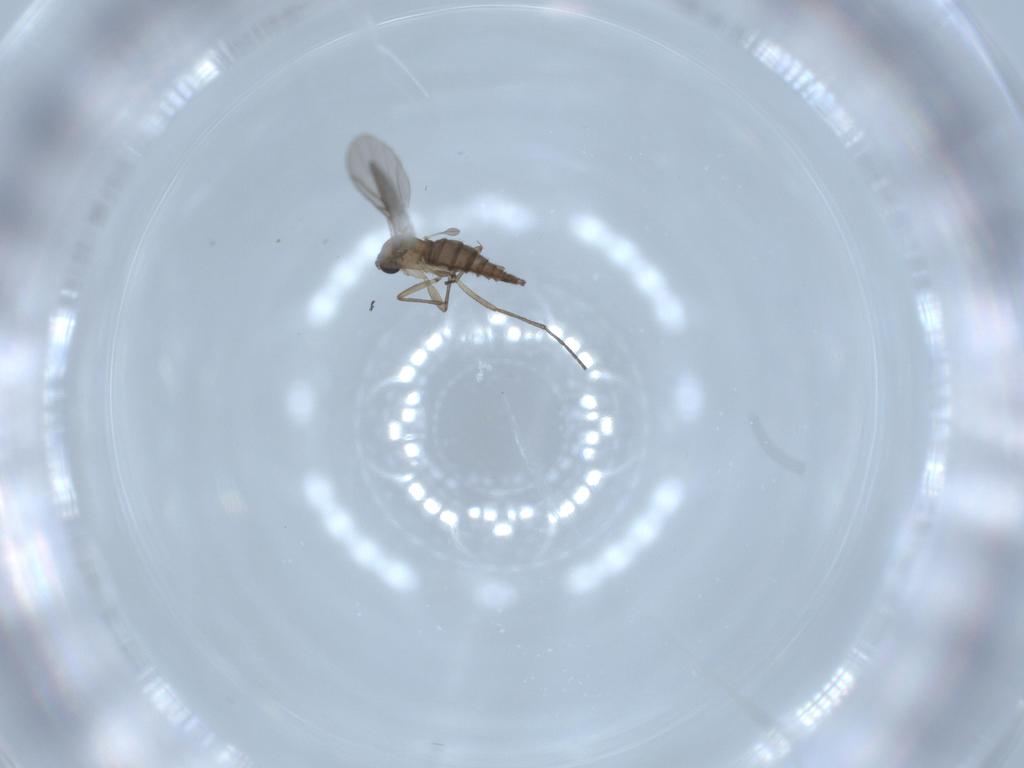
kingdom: Animalia
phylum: Arthropoda
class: Insecta
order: Diptera
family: Sciaridae
